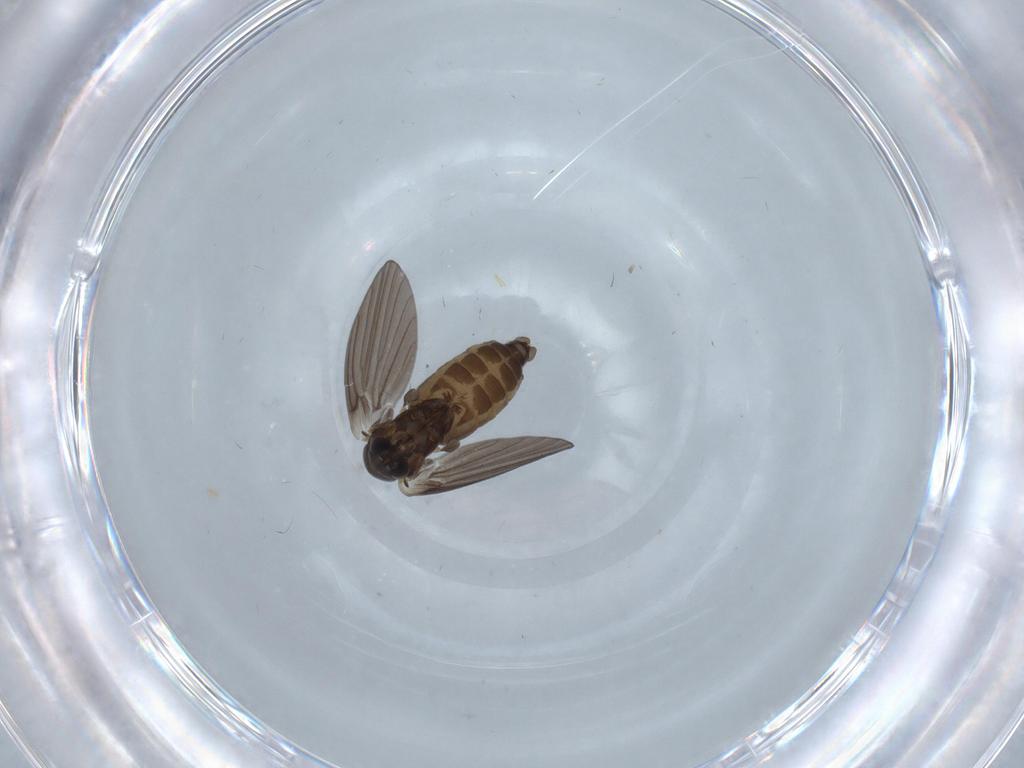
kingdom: Animalia
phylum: Arthropoda
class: Insecta
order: Diptera
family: Psychodidae
